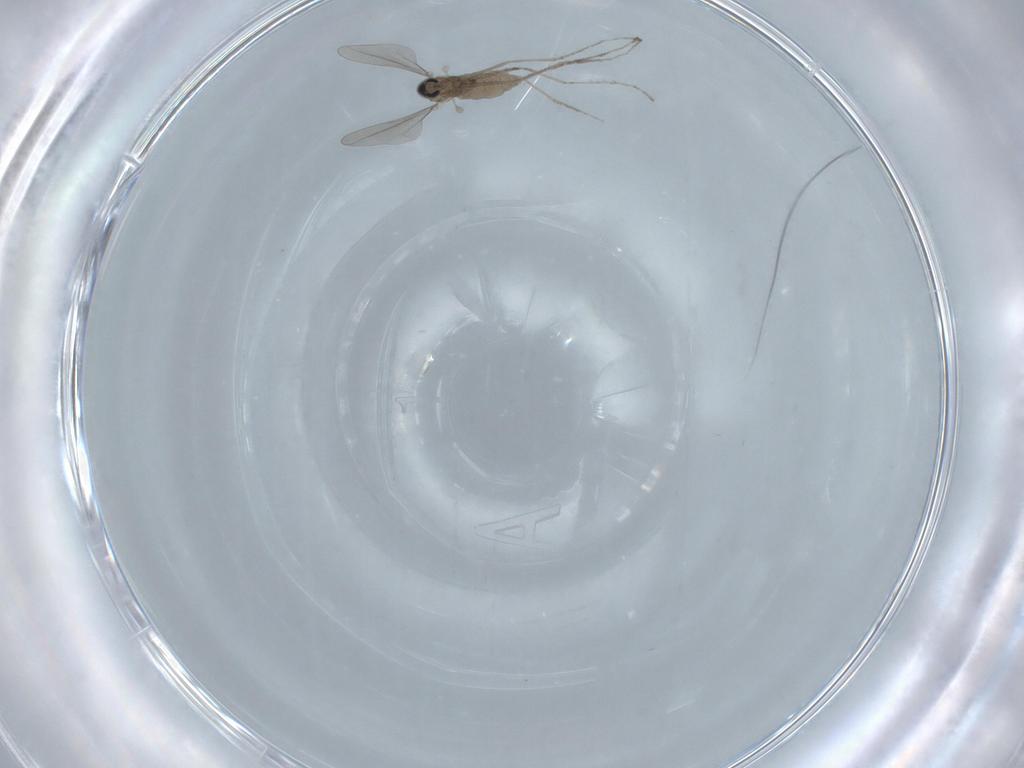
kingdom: Animalia
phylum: Arthropoda
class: Insecta
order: Diptera
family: Cecidomyiidae
